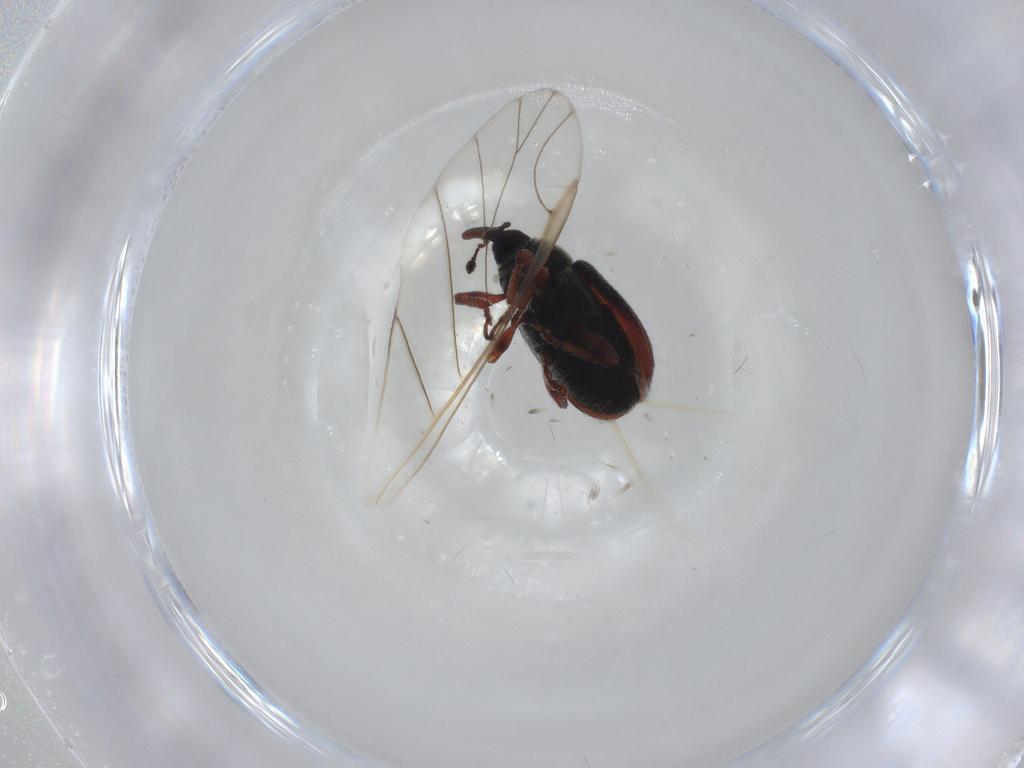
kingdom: Animalia
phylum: Arthropoda
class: Insecta
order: Coleoptera
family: Curculionidae
